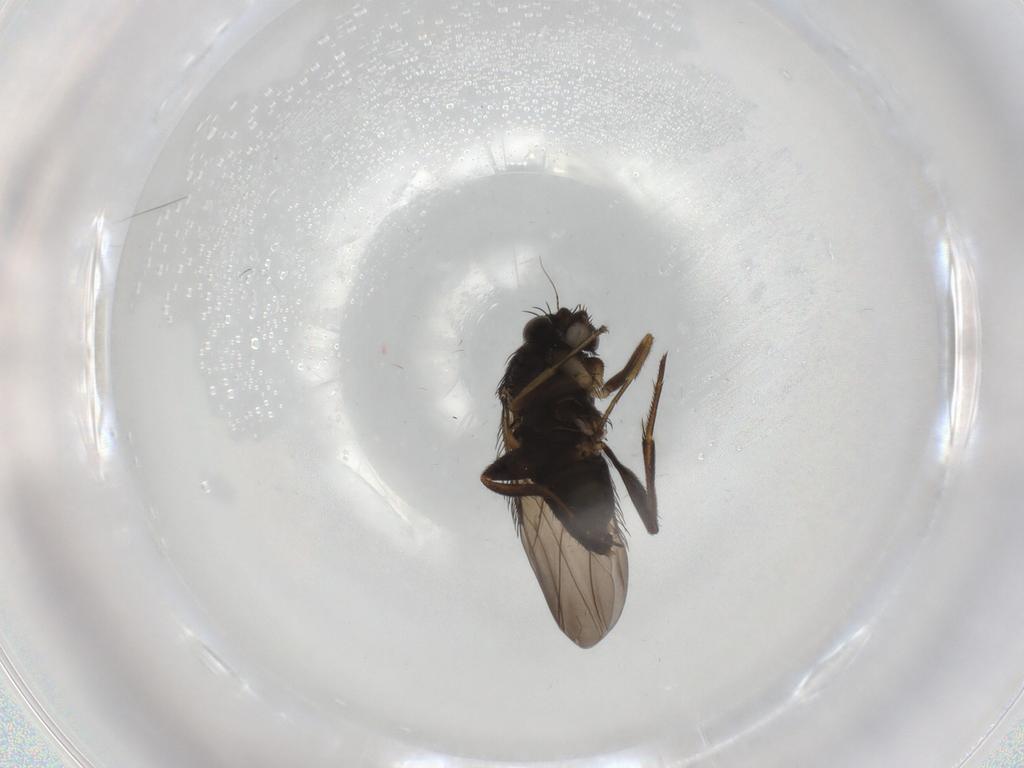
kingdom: Animalia
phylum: Arthropoda
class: Insecta
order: Diptera
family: Phoridae
